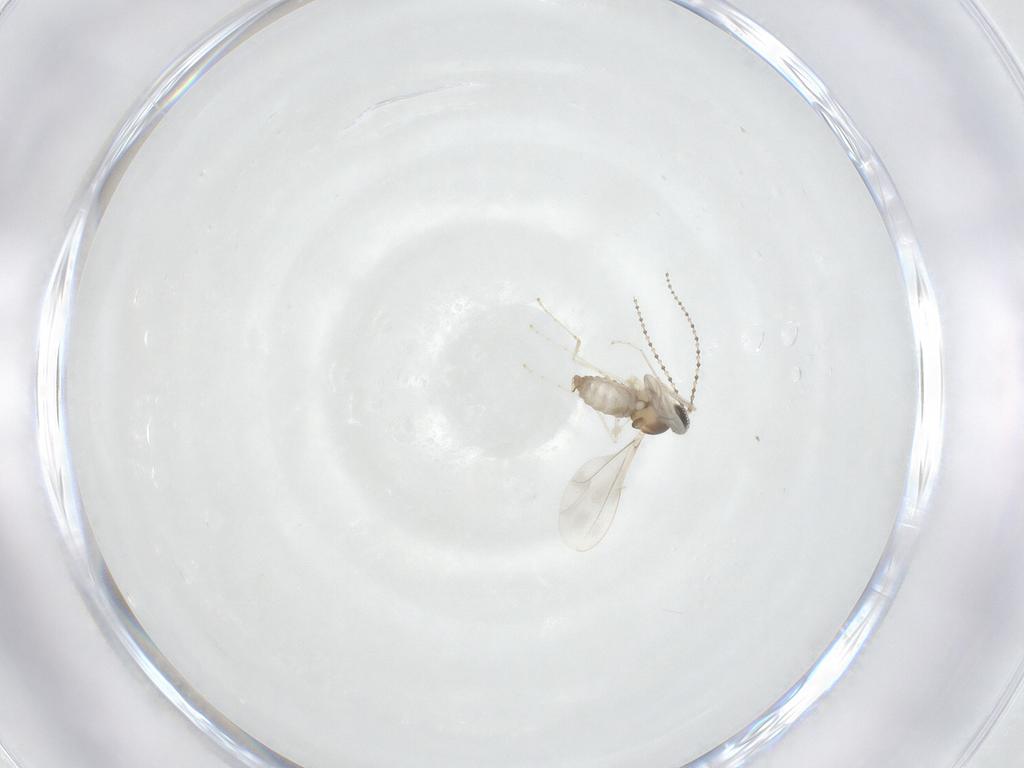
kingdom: Animalia
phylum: Arthropoda
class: Insecta
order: Diptera
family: Cecidomyiidae
